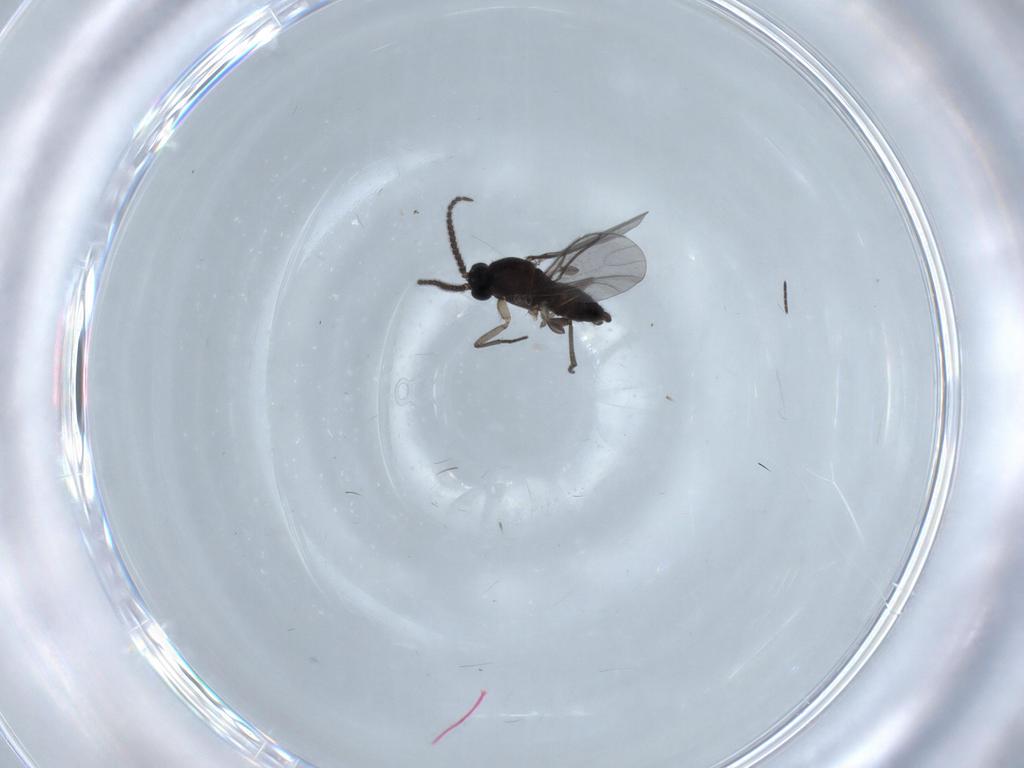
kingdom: Animalia
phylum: Arthropoda
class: Insecta
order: Diptera
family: Sciaridae
